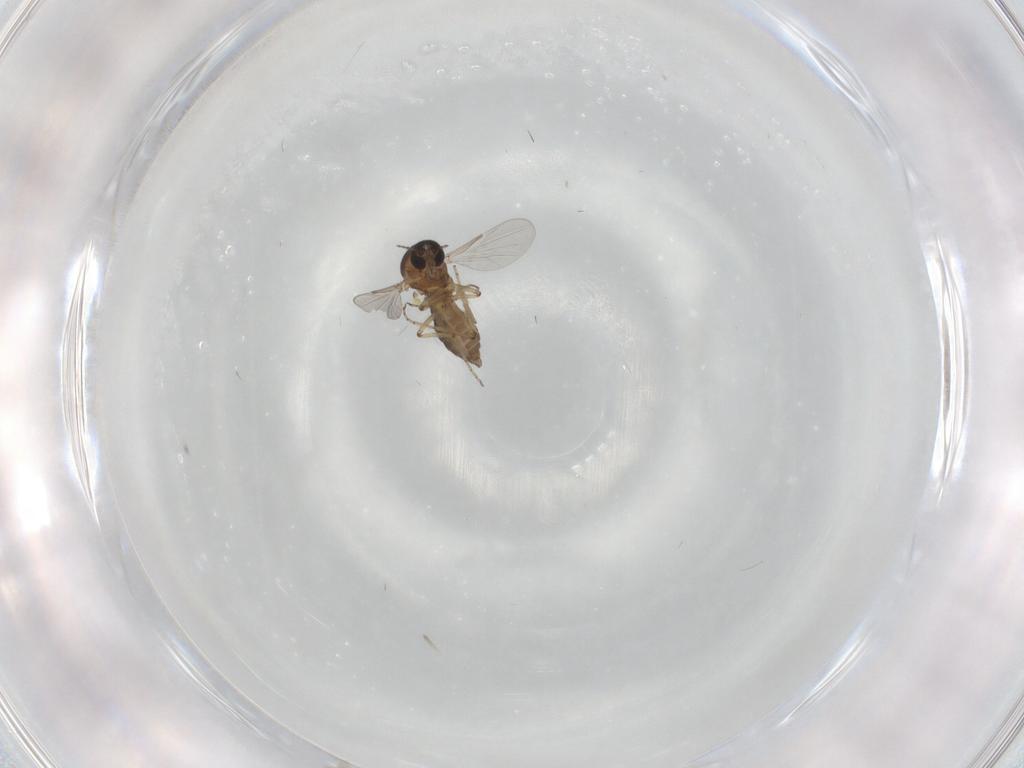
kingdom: Animalia
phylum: Arthropoda
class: Insecta
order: Diptera
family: Ceratopogonidae
